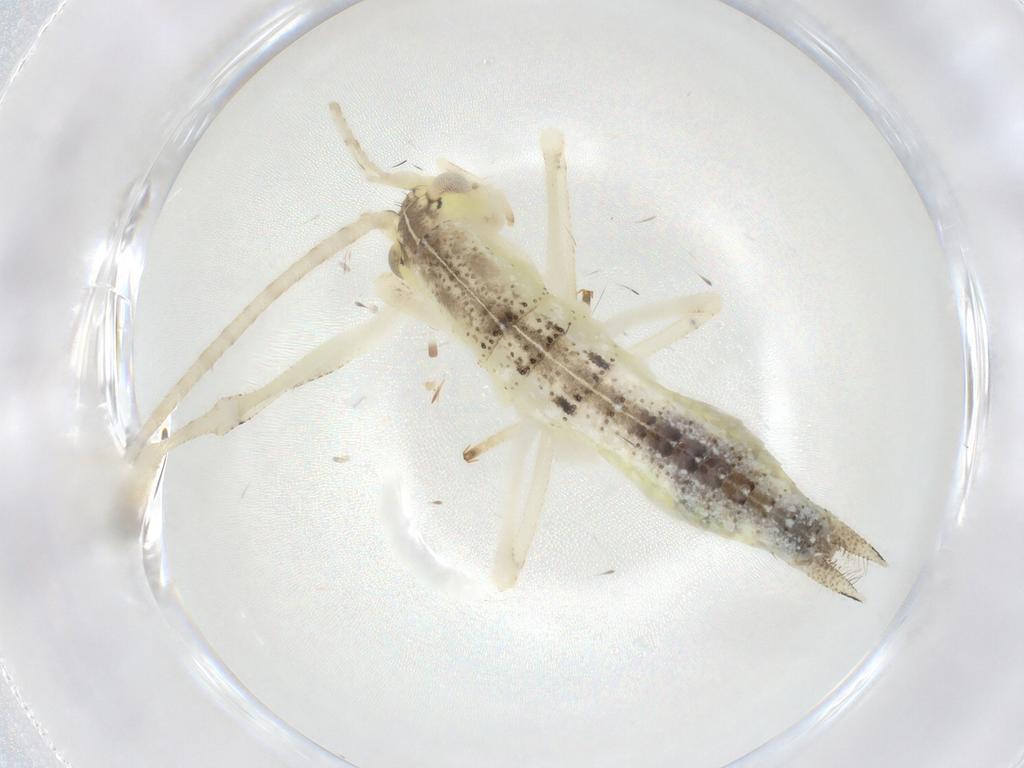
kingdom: Animalia
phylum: Arthropoda
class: Insecta
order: Orthoptera
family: Oecanthidae
